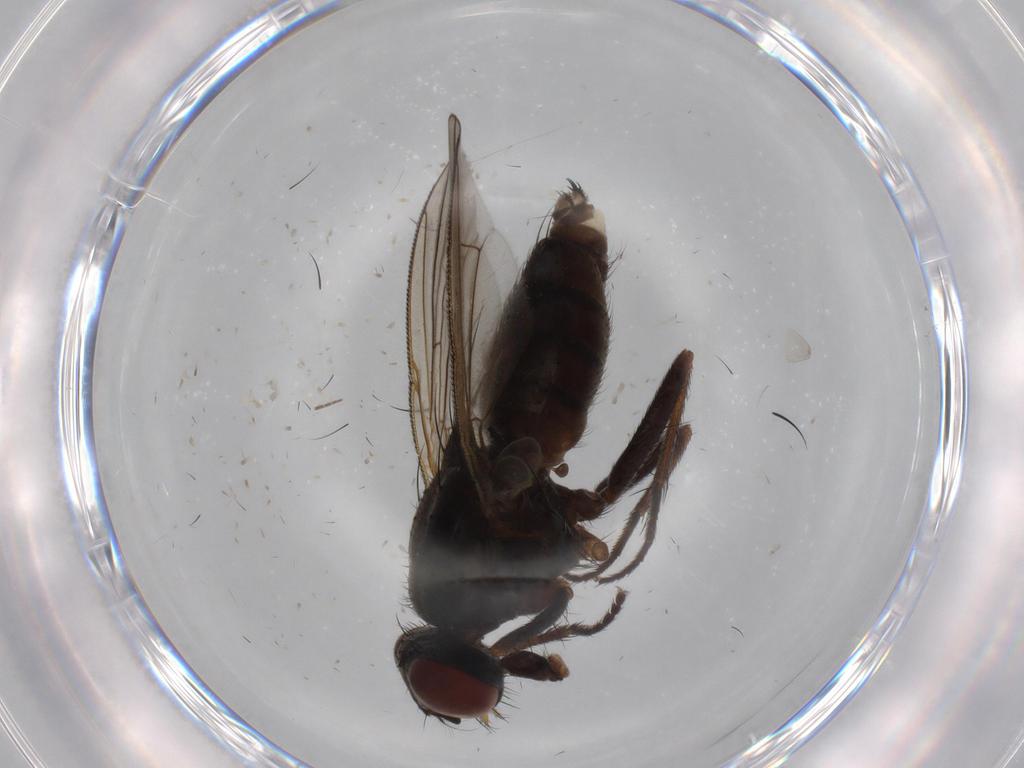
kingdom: Animalia
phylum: Arthropoda
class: Insecta
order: Diptera
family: Muscidae
